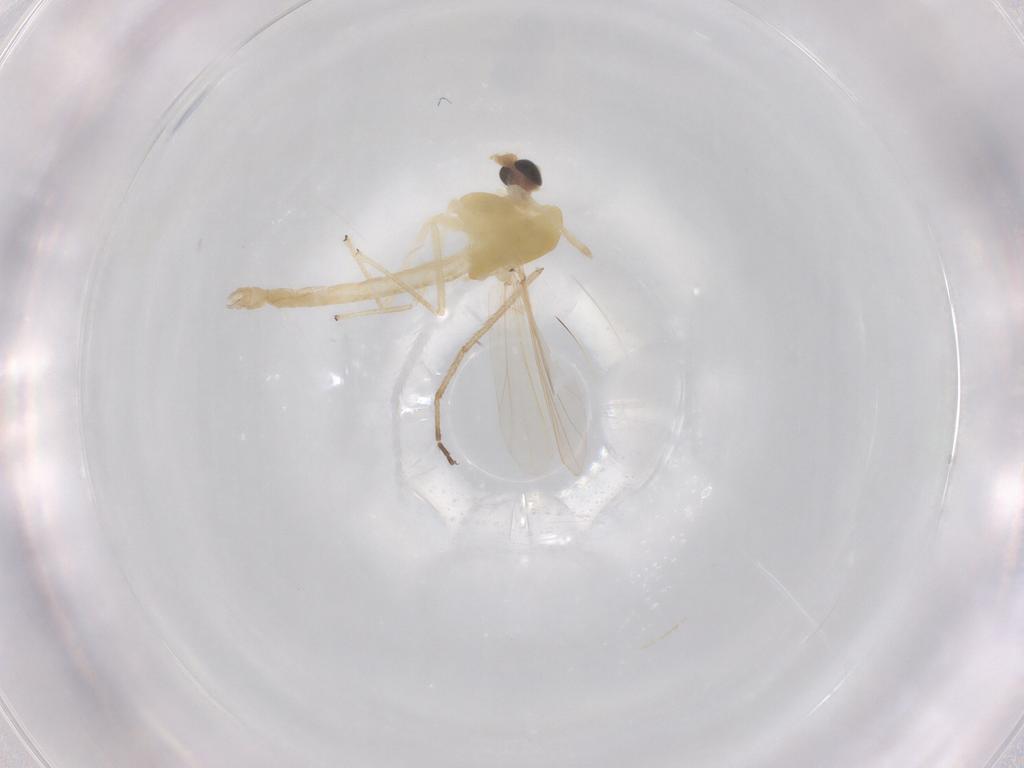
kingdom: Animalia
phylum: Arthropoda
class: Insecta
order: Diptera
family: Chironomidae
